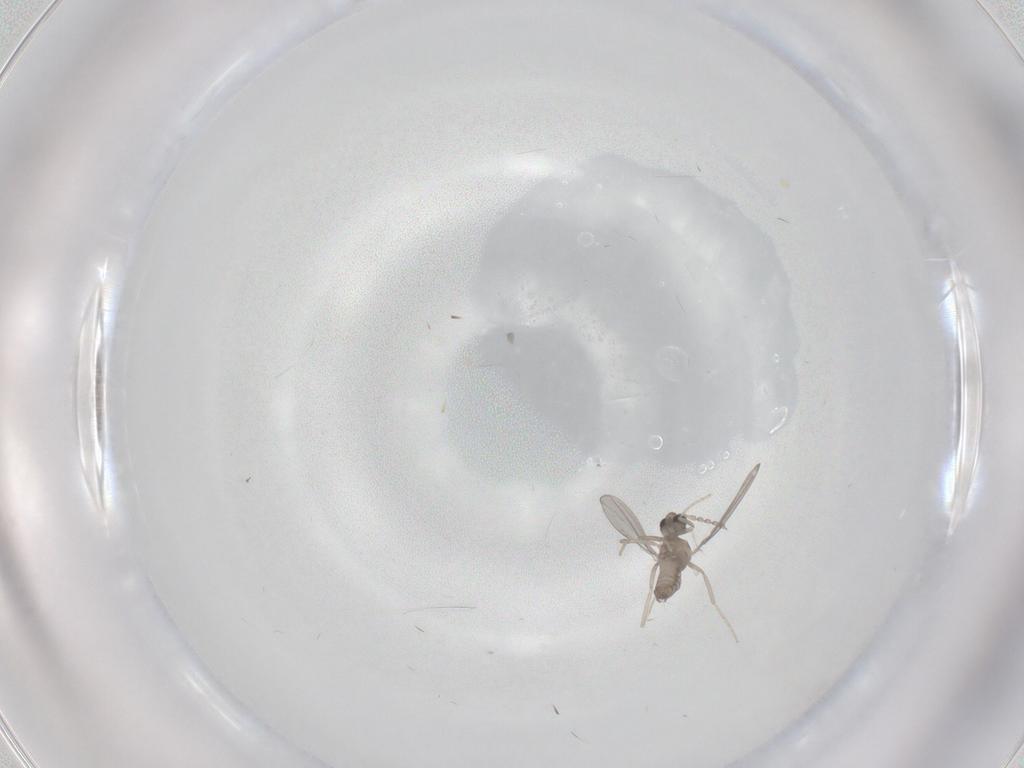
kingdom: Animalia
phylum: Arthropoda
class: Insecta
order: Diptera
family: Cecidomyiidae
